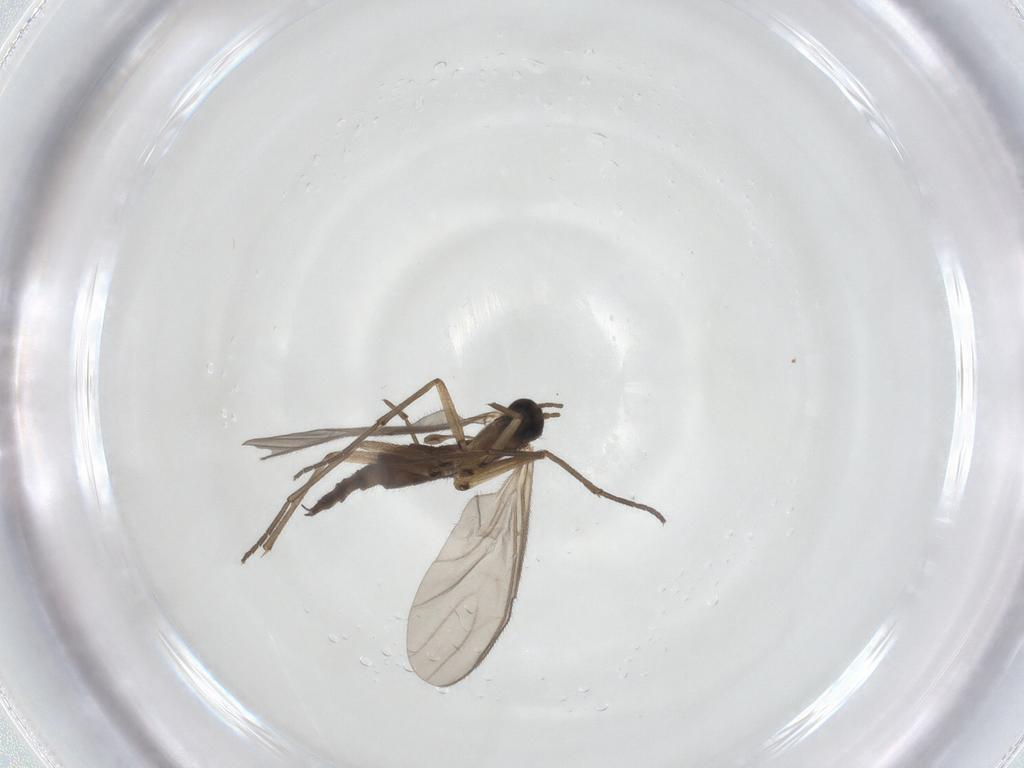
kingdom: Animalia
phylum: Arthropoda
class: Insecta
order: Diptera
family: Sciaridae
